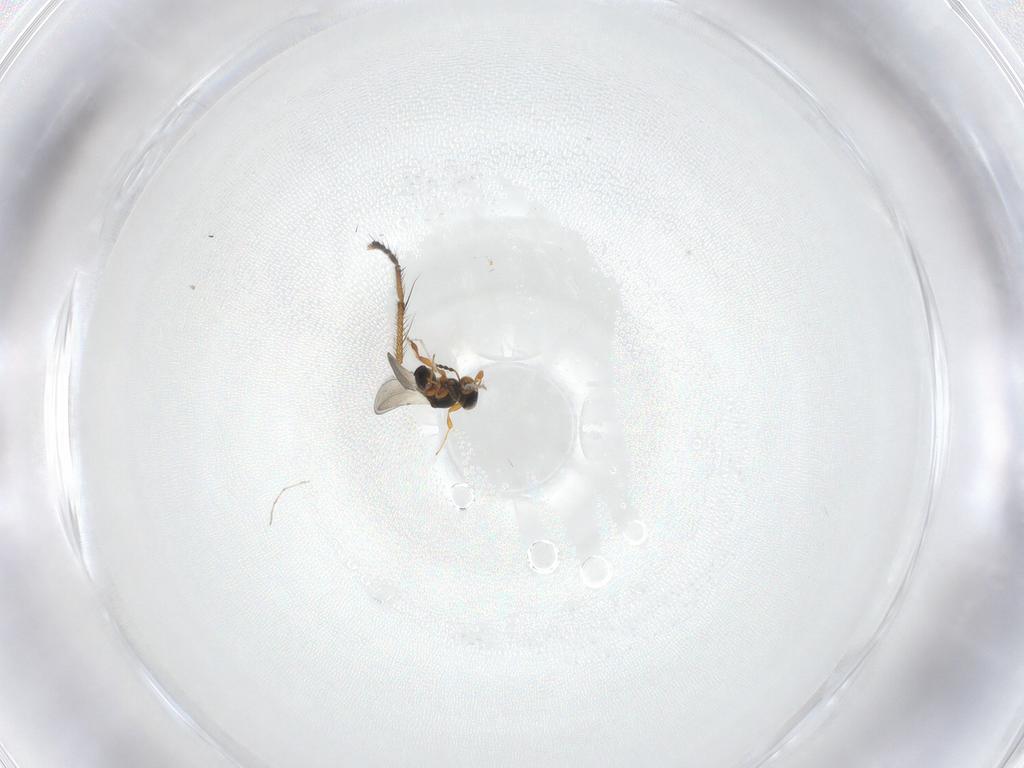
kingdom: Animalia
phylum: Arthropoda
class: Insecta
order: Hymenoptera
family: Platygastridae
